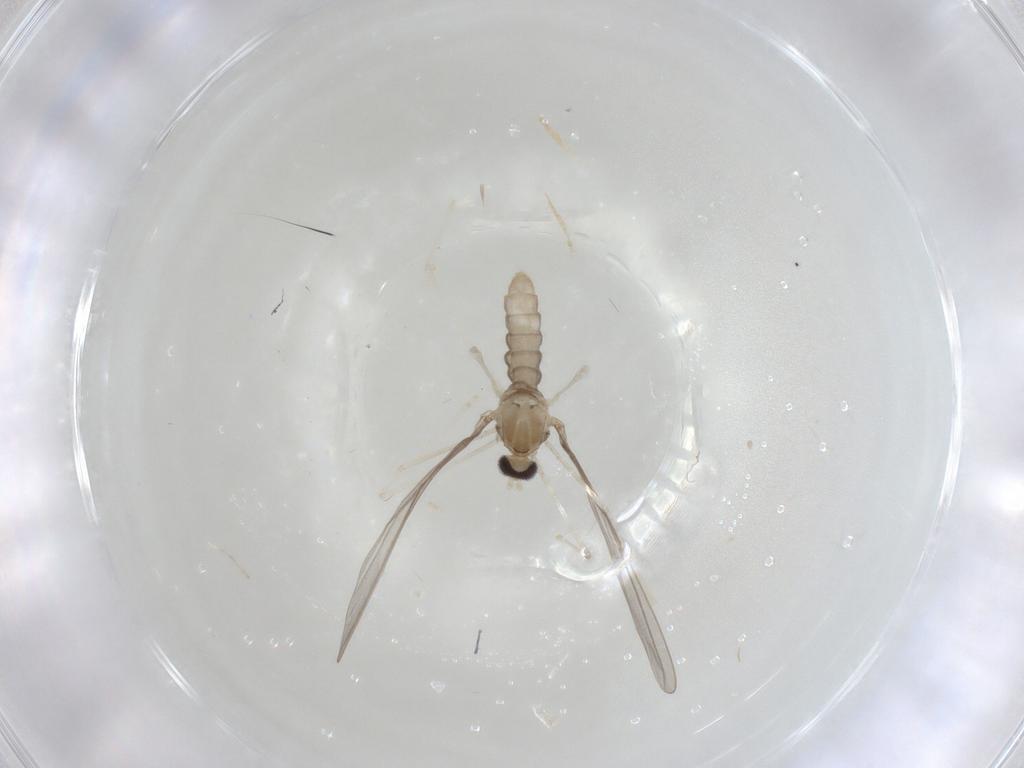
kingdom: Animalia
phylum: Arthropoda
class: Insecta
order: Diptera
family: Cecidomyiidae
